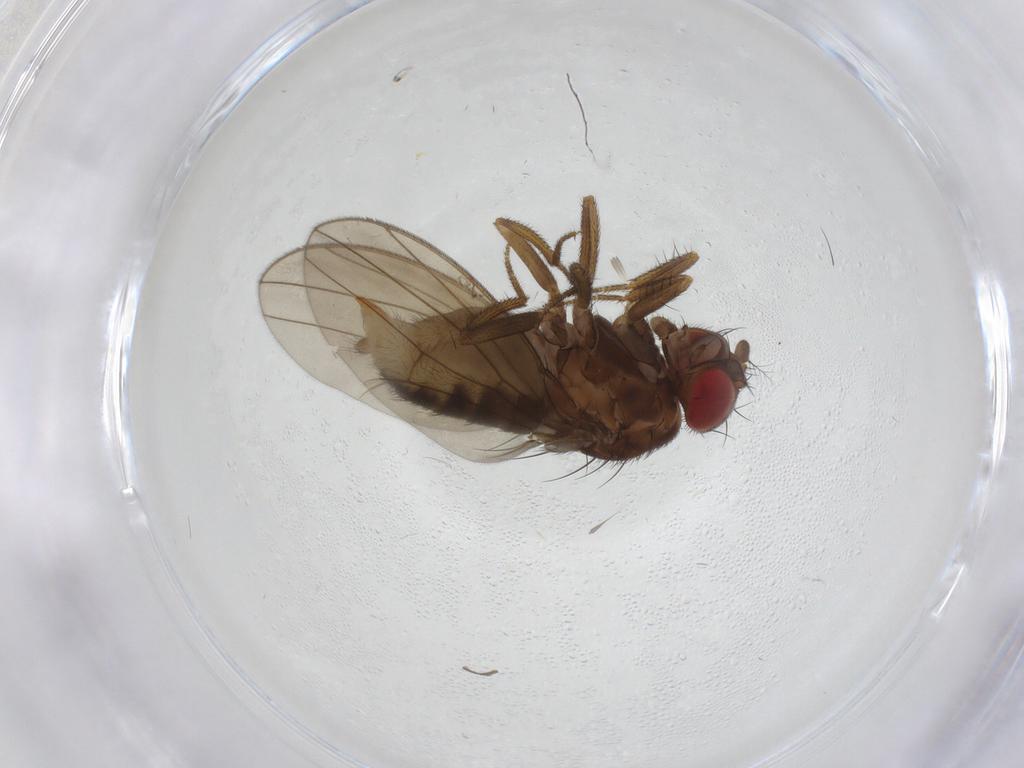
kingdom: Animalia
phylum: Arthropoda
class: Insecta
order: Diptera
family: Drosophilidae
